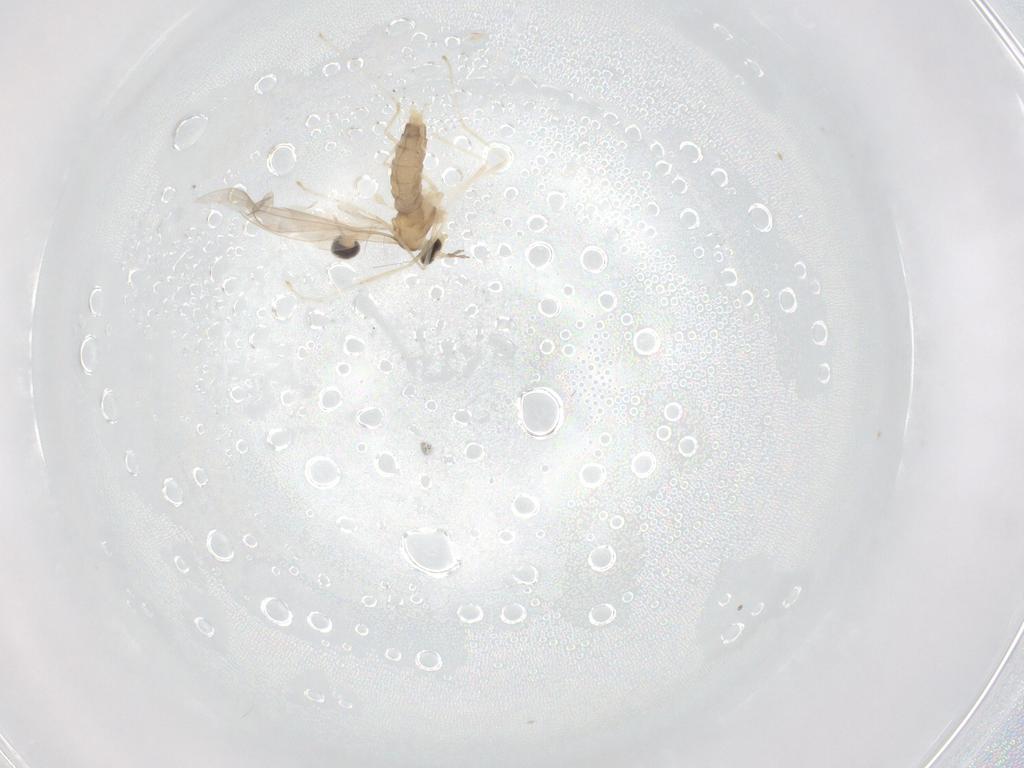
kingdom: Animalia
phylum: Arthropoda
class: Insecta
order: Diptera
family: Cecidomyiidae
